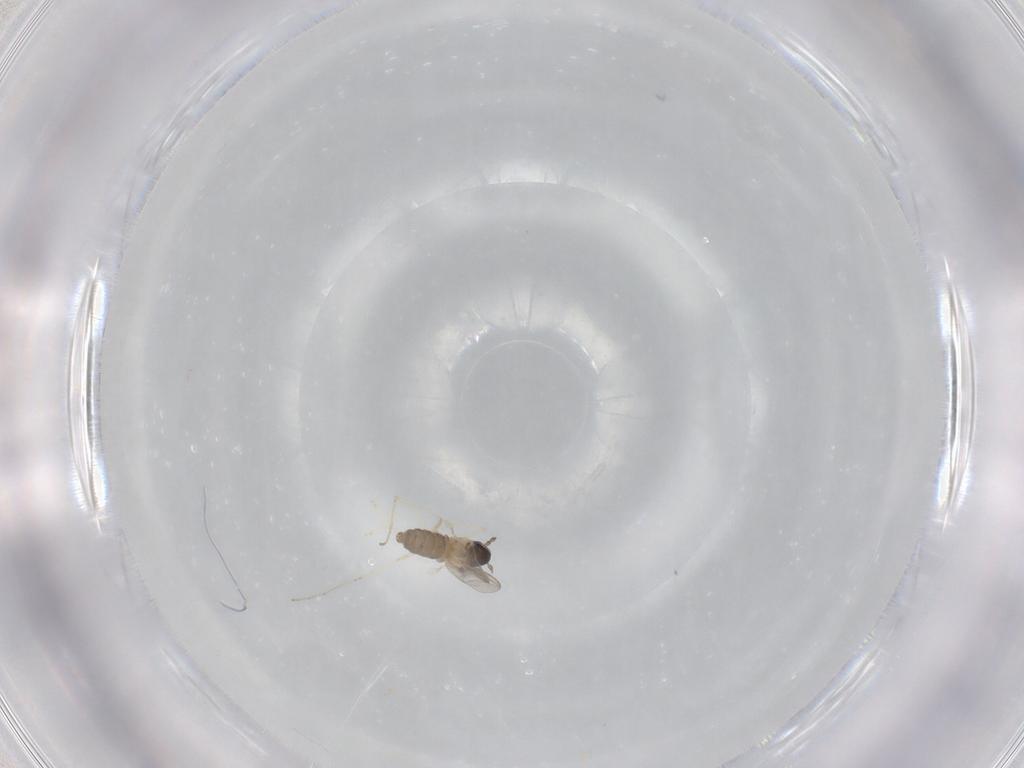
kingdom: Animalia
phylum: Arthropoda
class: Insecta
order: Diptera
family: Cecidomyiidae
